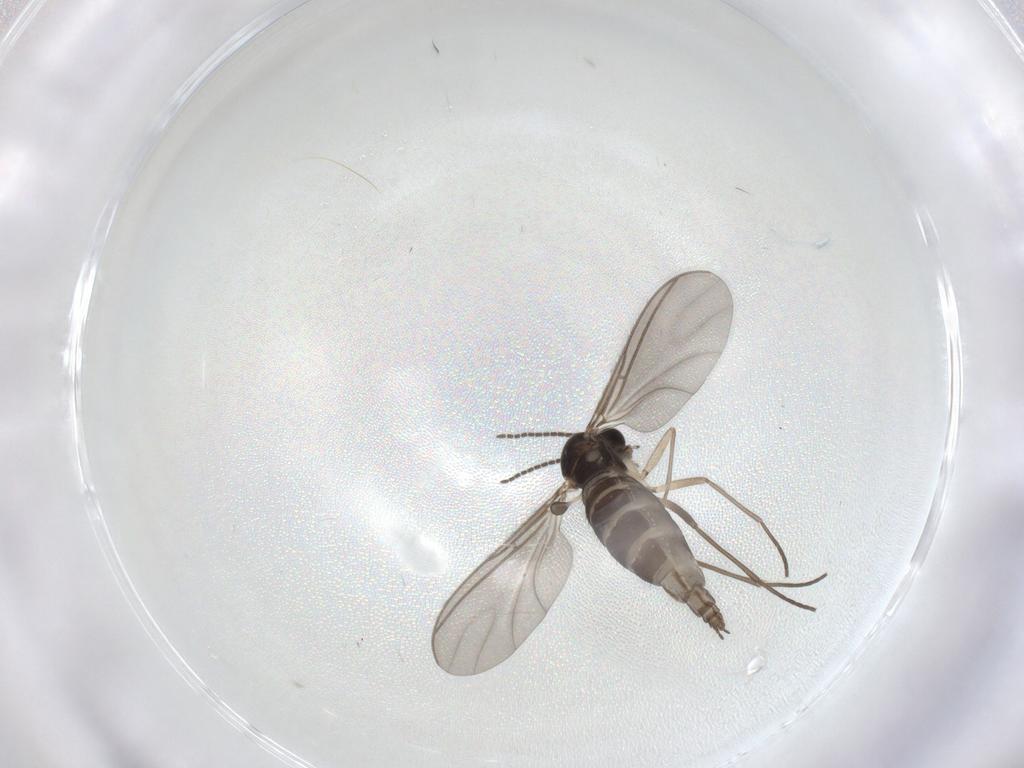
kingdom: Animalia
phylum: Arthropoda
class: Insecta
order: Diptera
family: Sciaridae
